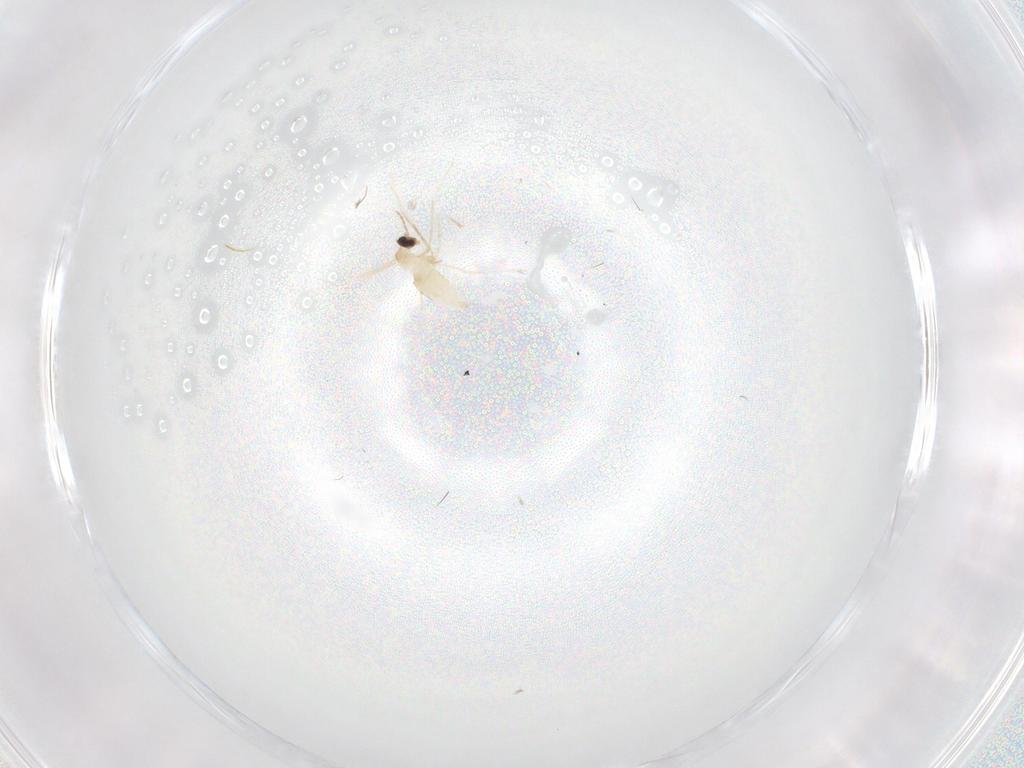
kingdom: Animalia
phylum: Arthropoda
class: Insecta
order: Diptera
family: Cecidomyiidae
